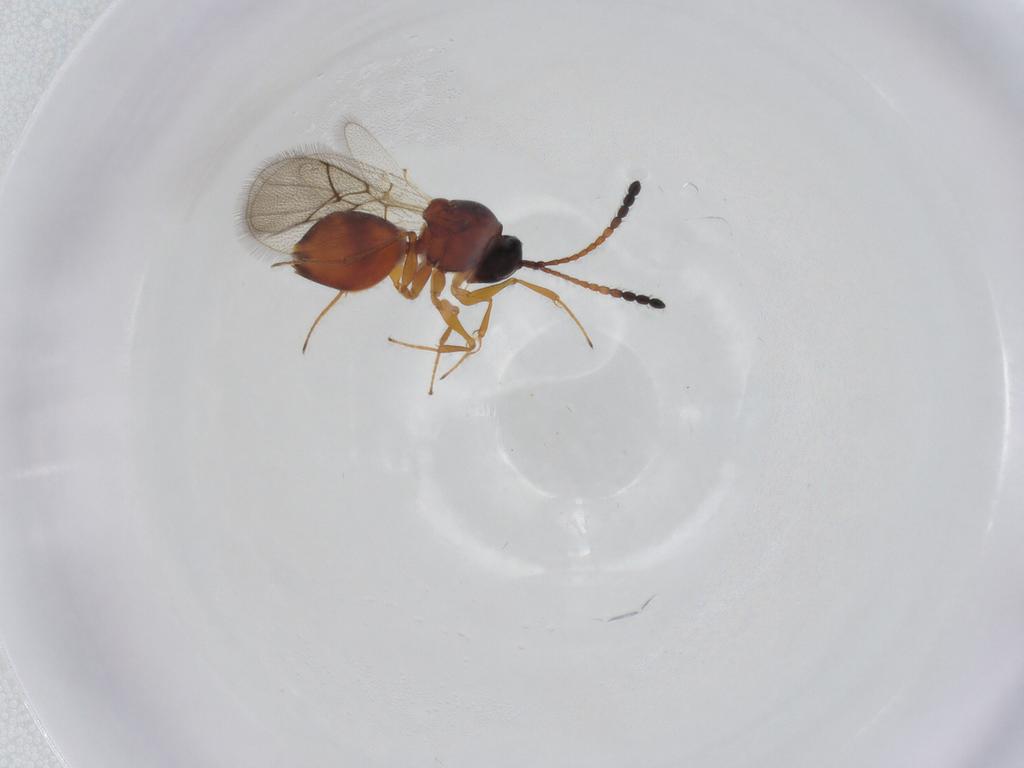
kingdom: Animalia
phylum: Arthropoda
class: Insecta
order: Hymenoptera
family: Figitidae
